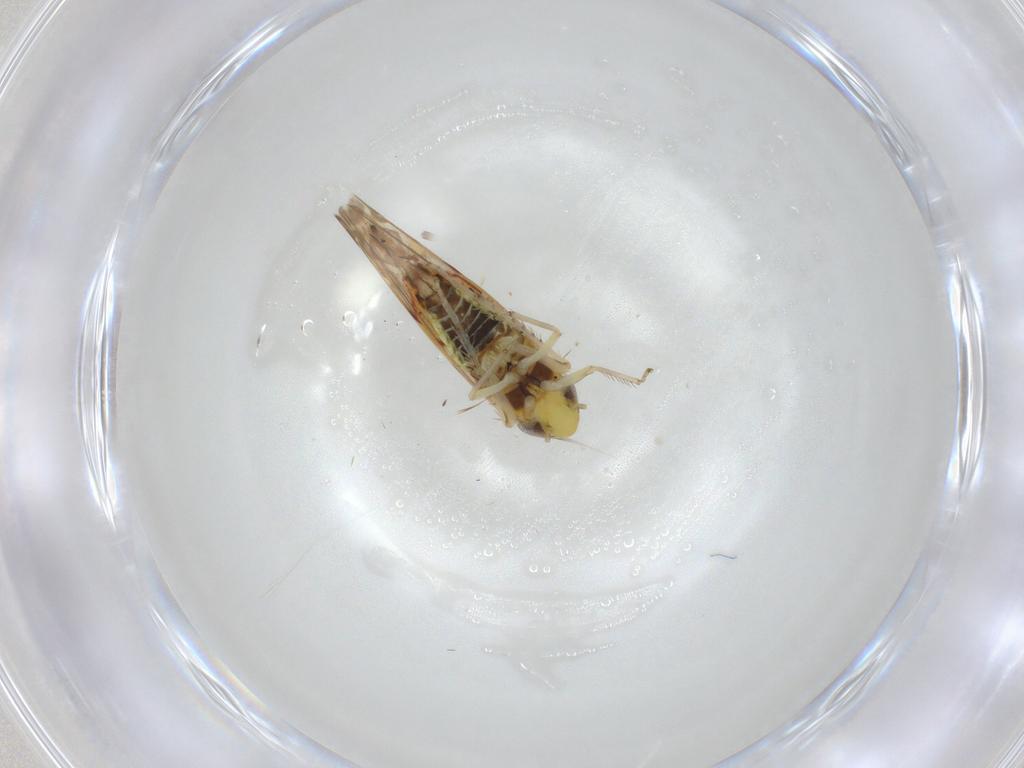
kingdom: Animalia
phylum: Arthropoda
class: Insecta
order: Hemiptera
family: Cicadellidae
